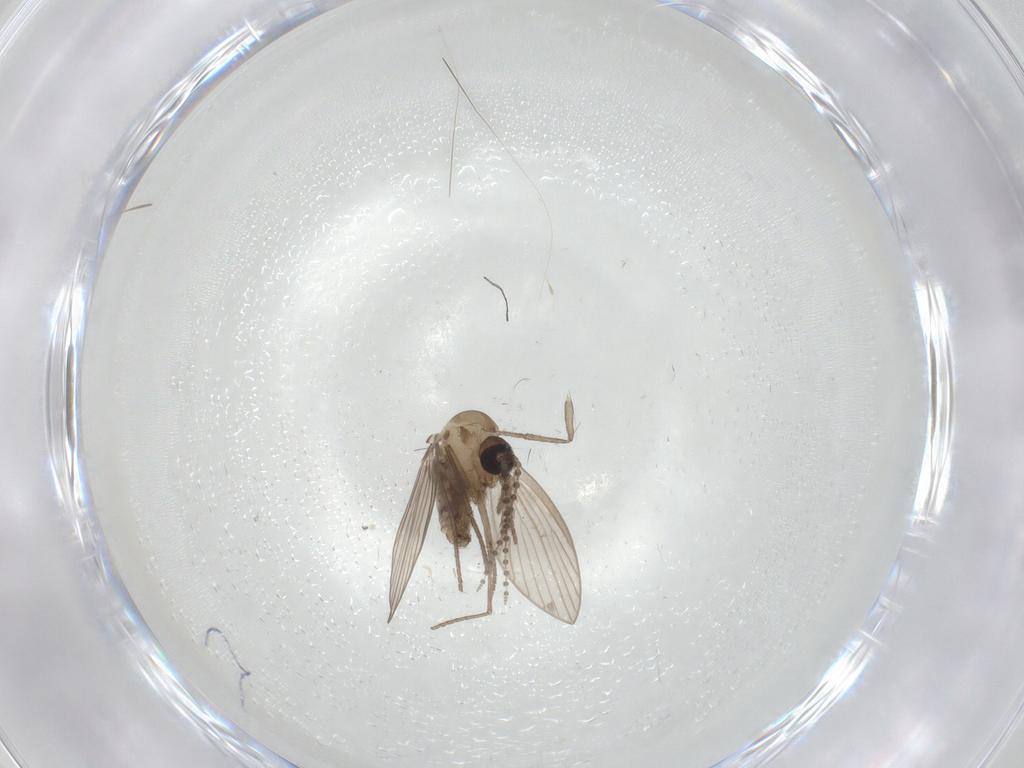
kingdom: Animalia
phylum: Arthropoda
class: Insecta
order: Diptera
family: Psychodidae
